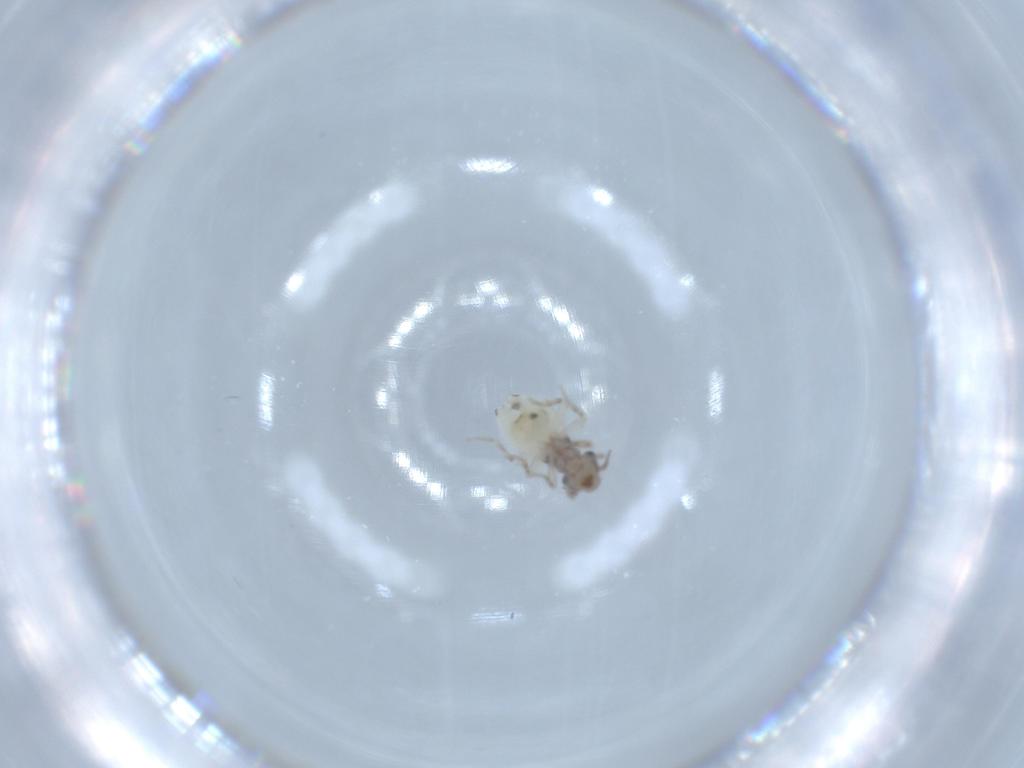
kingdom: Animalia
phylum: Arthropoda
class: Insecta
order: Psocodea
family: Lepidopsocidae
